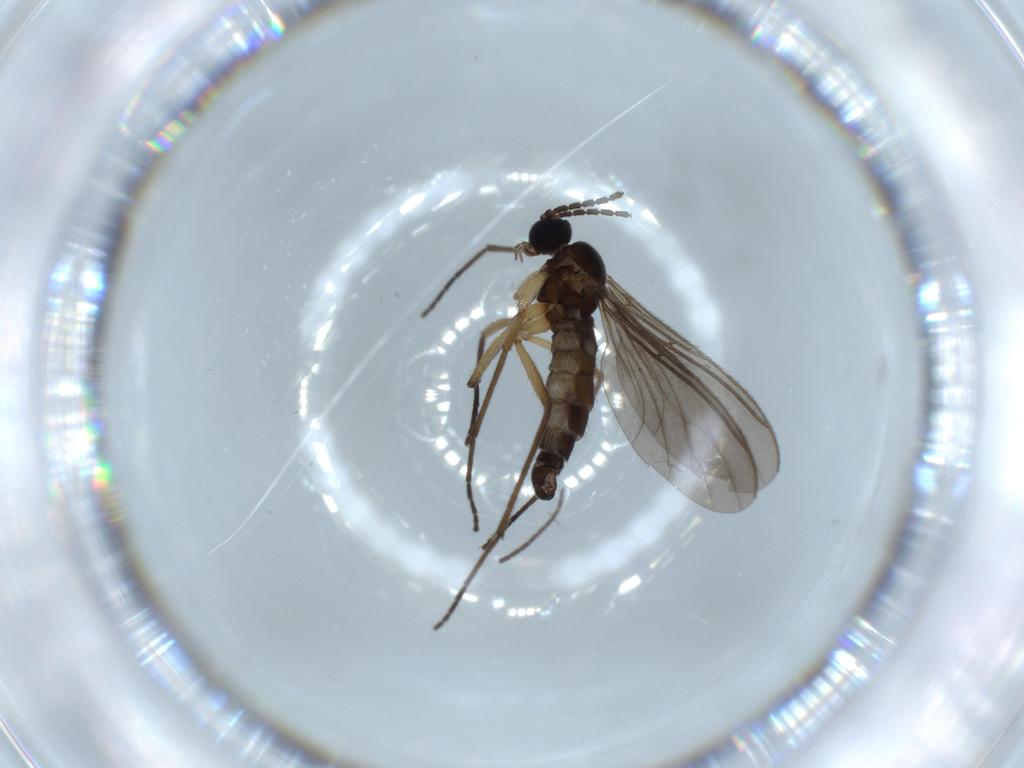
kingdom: Animalia
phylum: Arthropoda
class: Insecta
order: Diptera
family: Sciaridae
